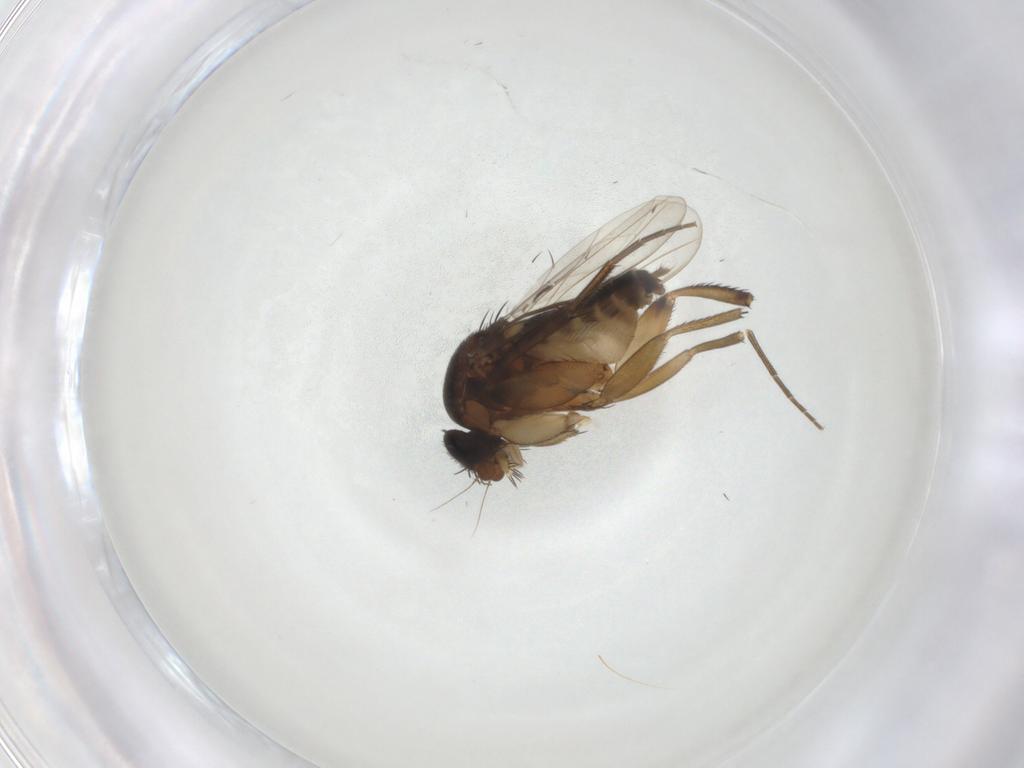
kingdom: Animalia
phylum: Arthropoda
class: Insecta
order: Diptera
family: Phoridae
